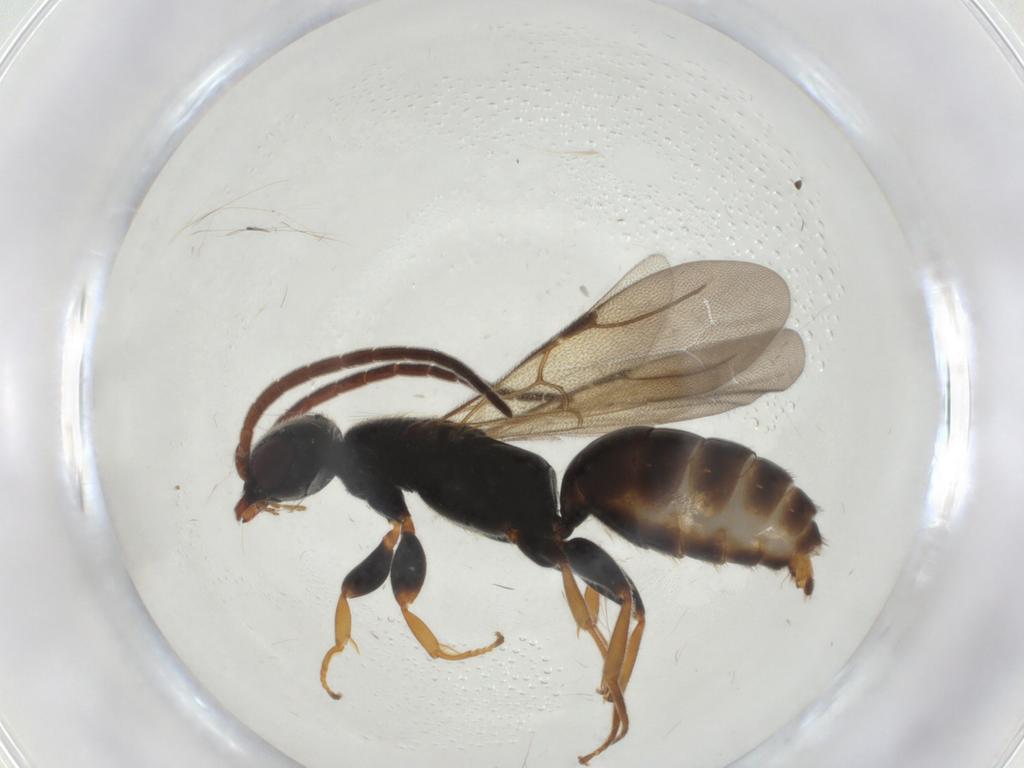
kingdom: Animalia
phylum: Arthropoda
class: Insecta
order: Hymenoptera
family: Bethylidae
